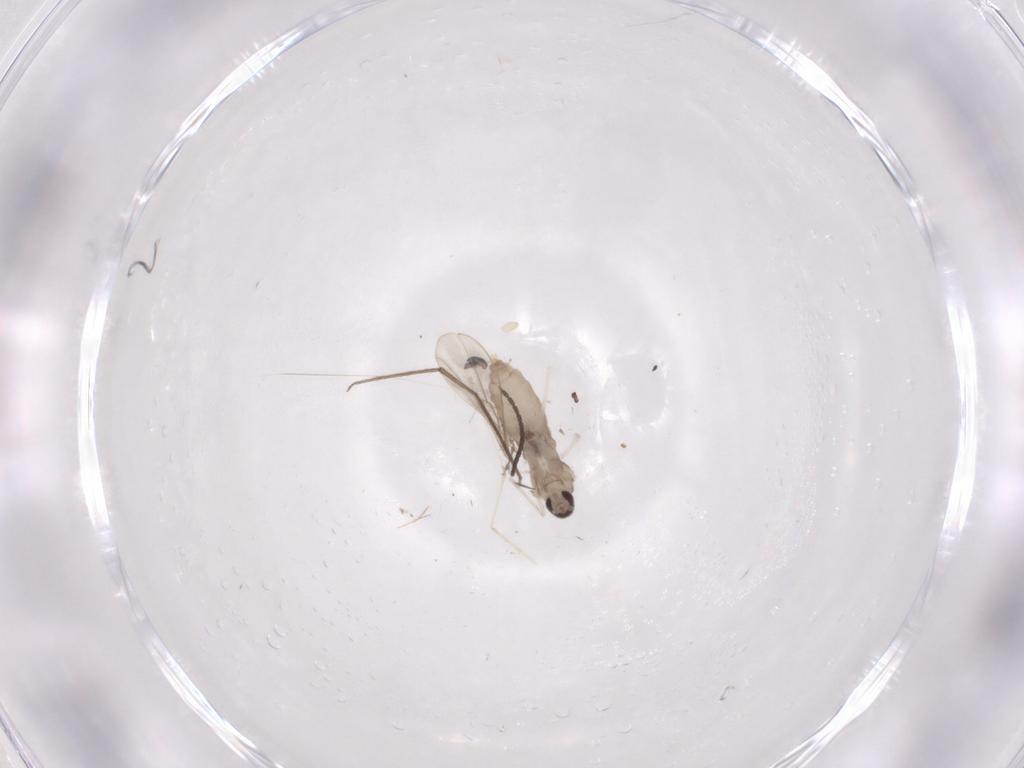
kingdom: Animalia
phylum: Arthropoda
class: Insecta
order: Diptera
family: Cecidomyiidae
